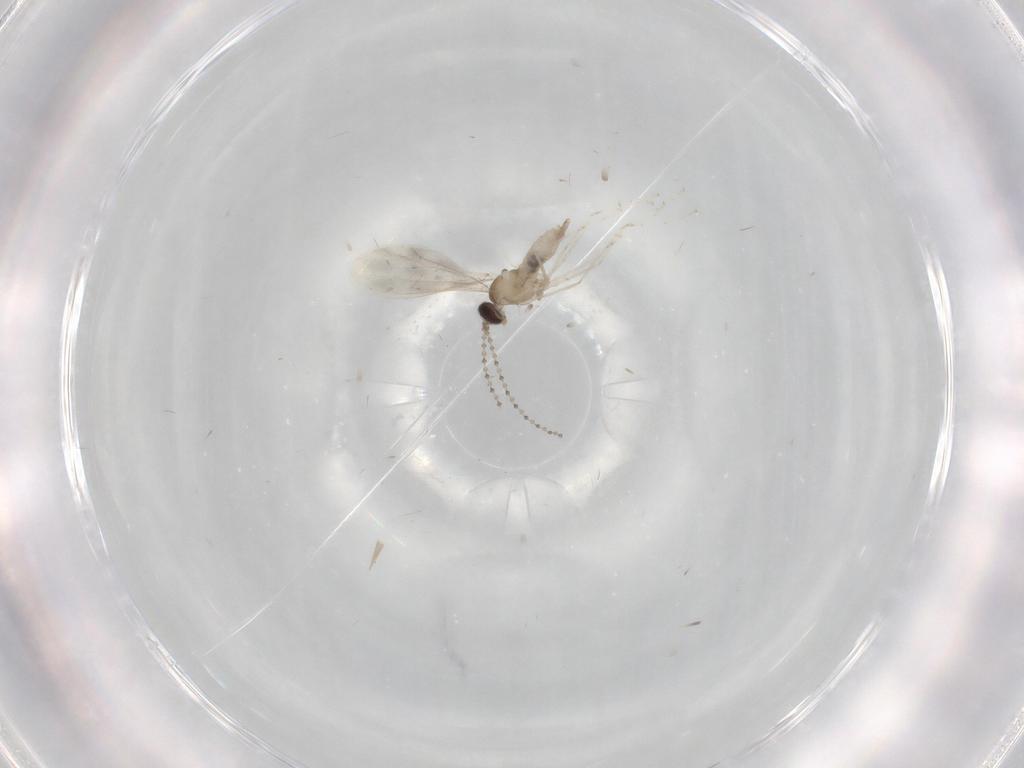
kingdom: Animalia
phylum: Arthropoda
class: Insecta
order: Diptera
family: Cecidomyiidae
